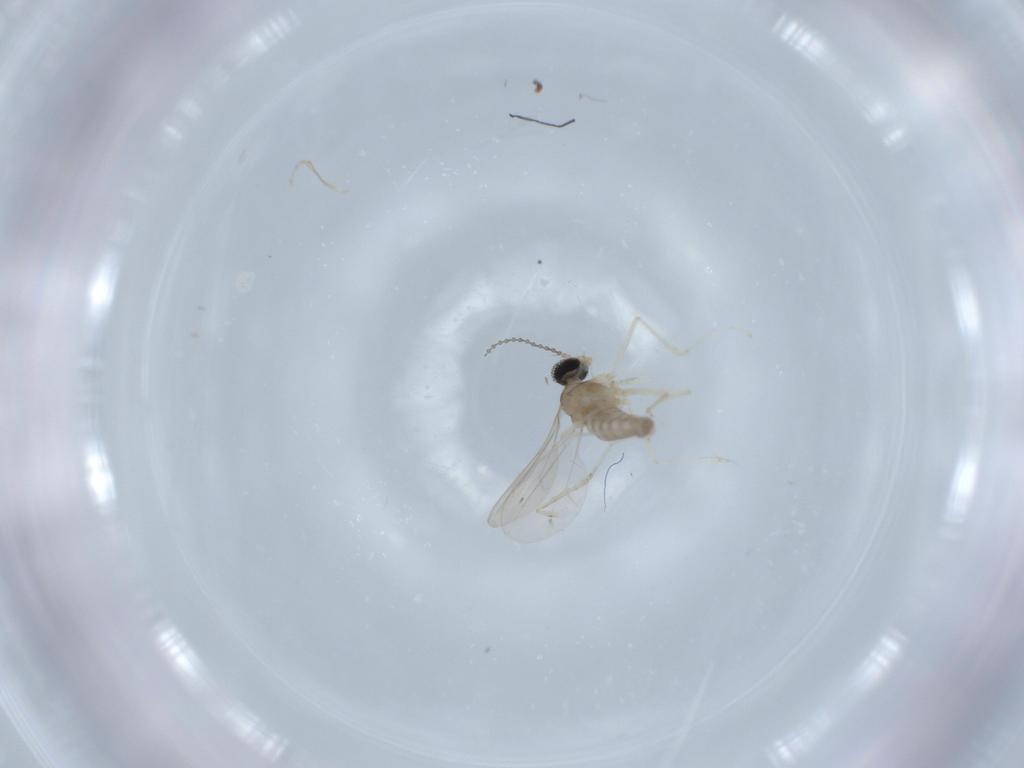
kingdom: Animalia
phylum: Arthropoda
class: Insecta
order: Diptera
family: Cecidomyiidae
